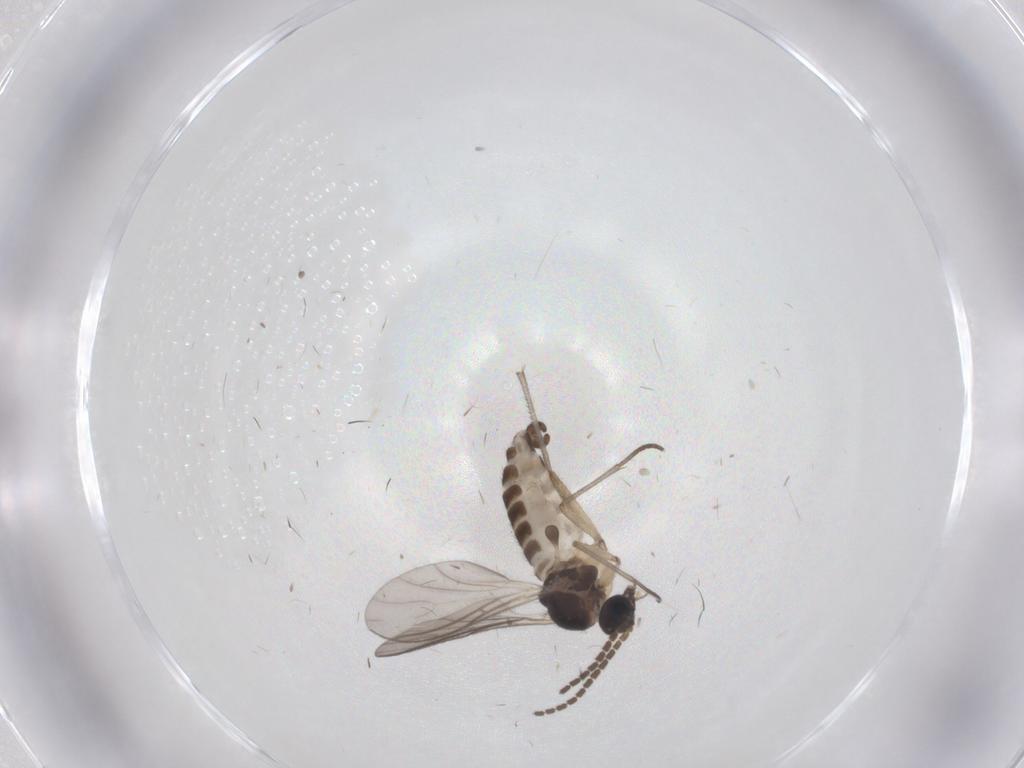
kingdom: Animalia
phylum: Arthropoda
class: Insecta
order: Diptera
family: Sciaridae
